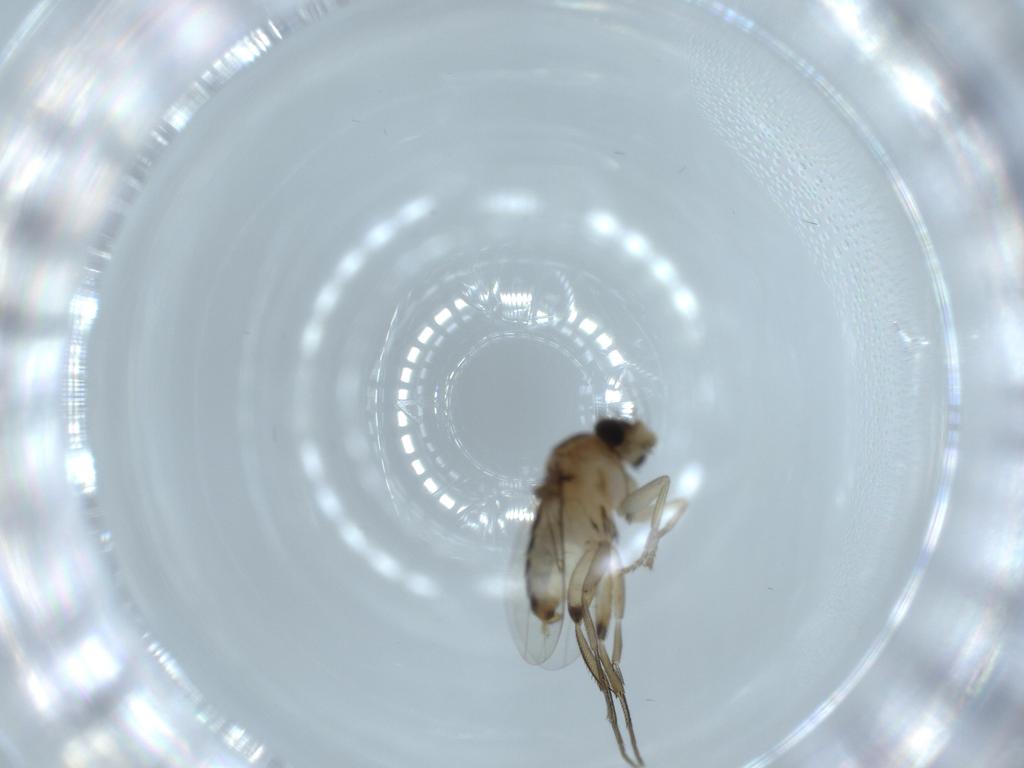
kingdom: Animalia
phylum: Arthropoda
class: Insecta
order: Diptera
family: Phoridae
